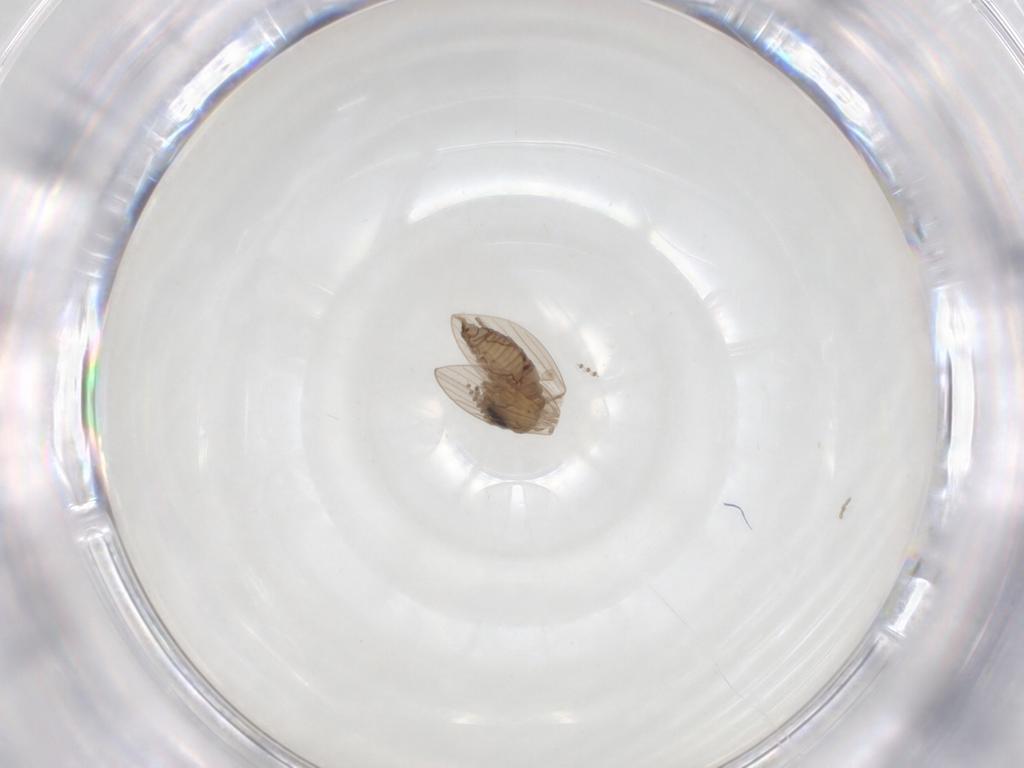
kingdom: Animalia
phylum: Arthropoda
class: Insecta
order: Diptera
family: Psychodidae
